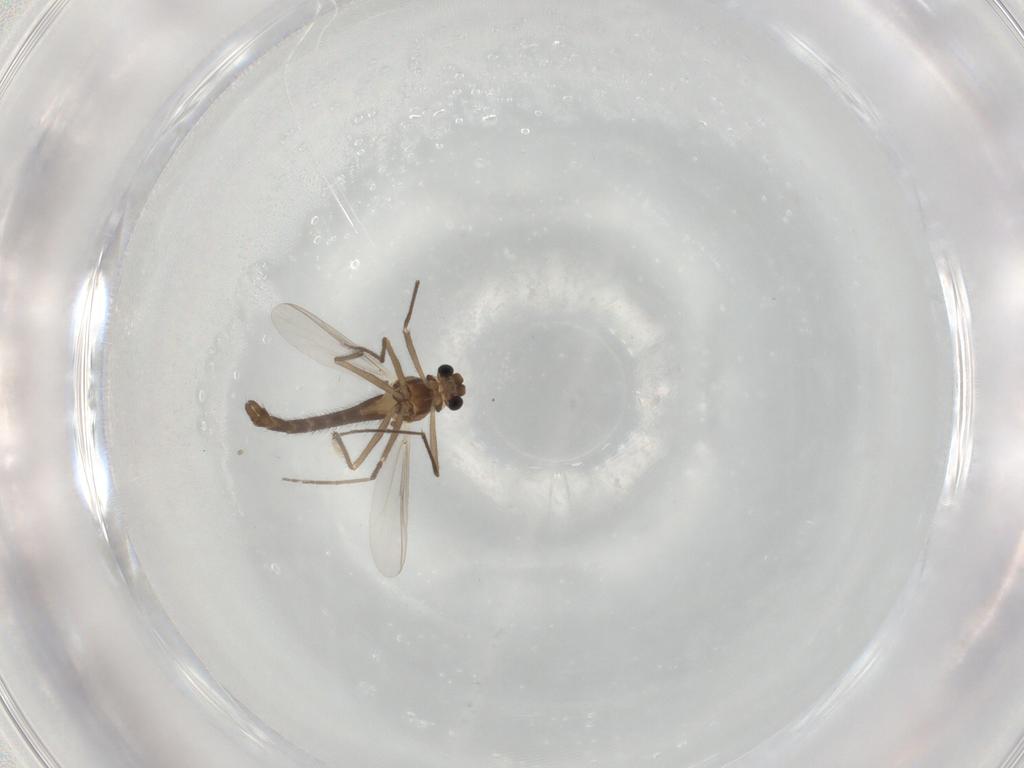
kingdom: Animalia
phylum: Arthropoda
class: Insecta
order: Diptera
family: Chironomidae
